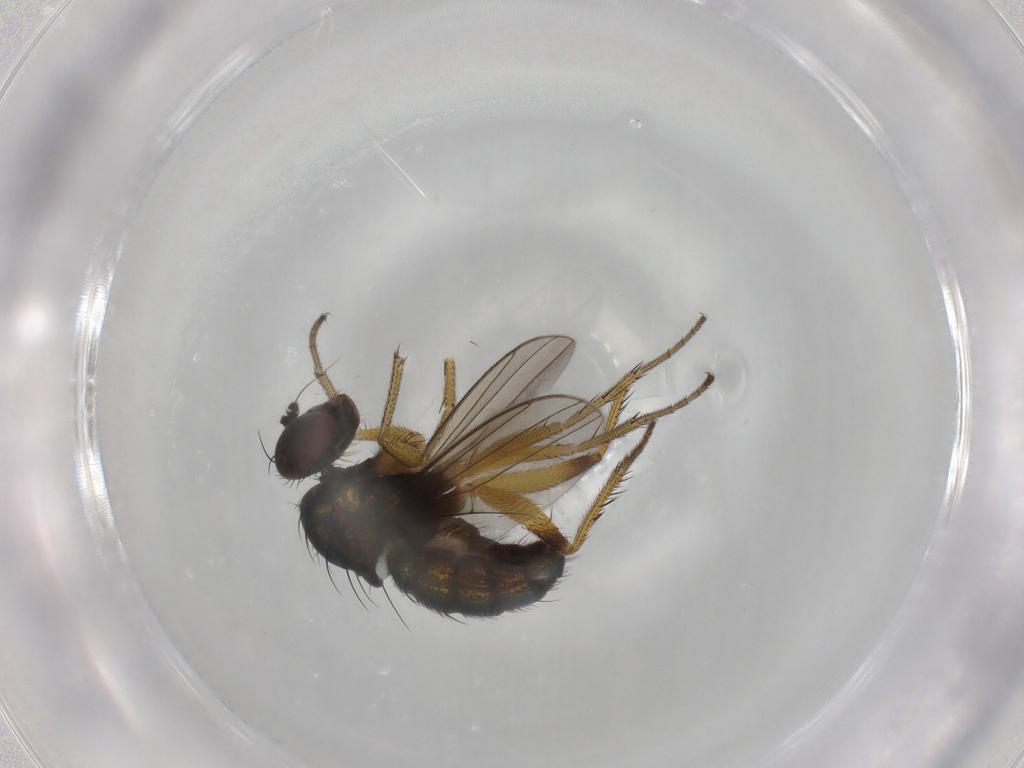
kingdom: Animalia
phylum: Arthropoda
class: Insecta
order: Diptera
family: Dolichopodidae
